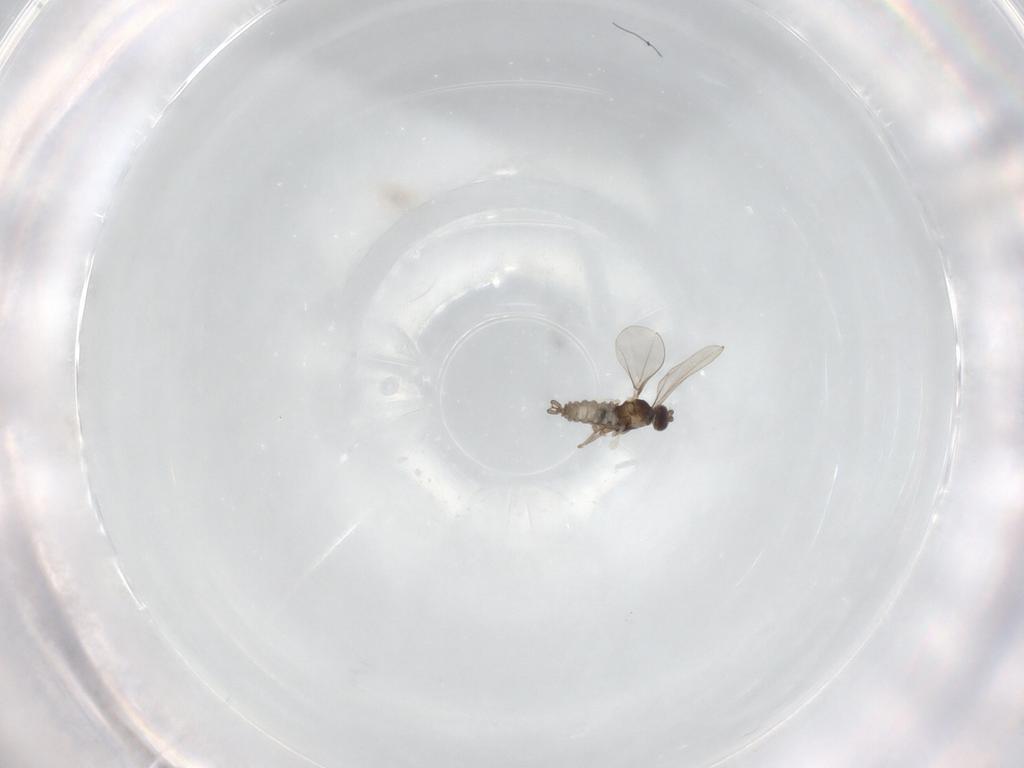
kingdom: Animalia
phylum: Arthropoda
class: Insecta
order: Diptera
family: Cecidomyiidae
